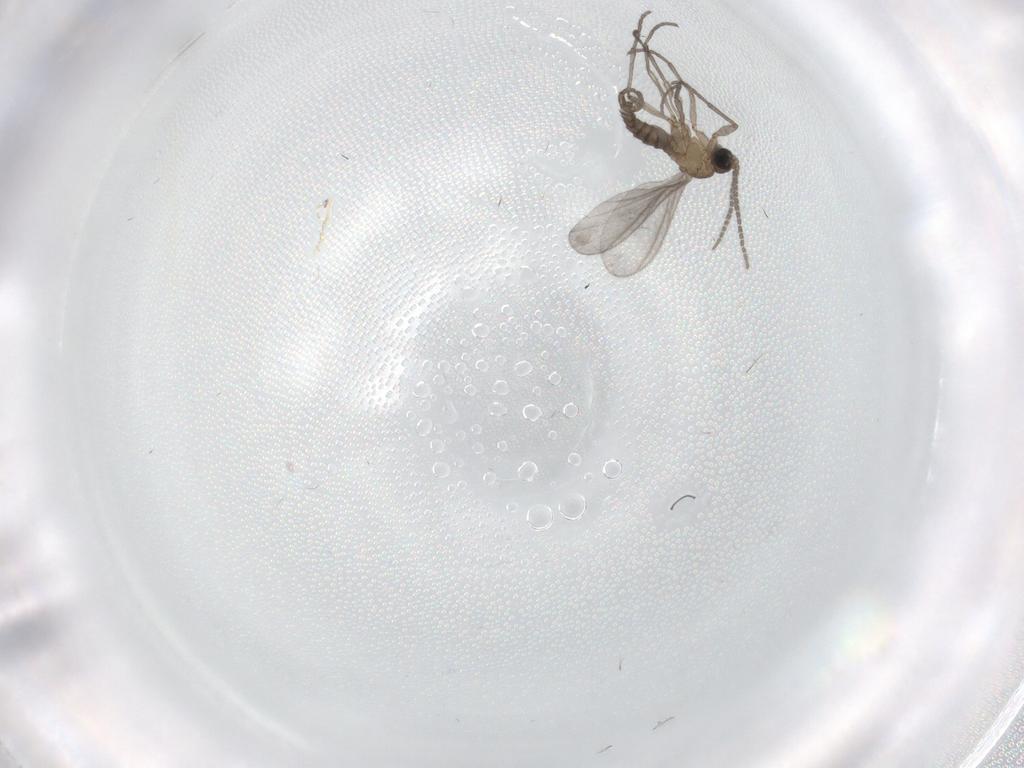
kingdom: Animalia
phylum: Arthropoda
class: Insecta
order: Diptera
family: Sciaridae
